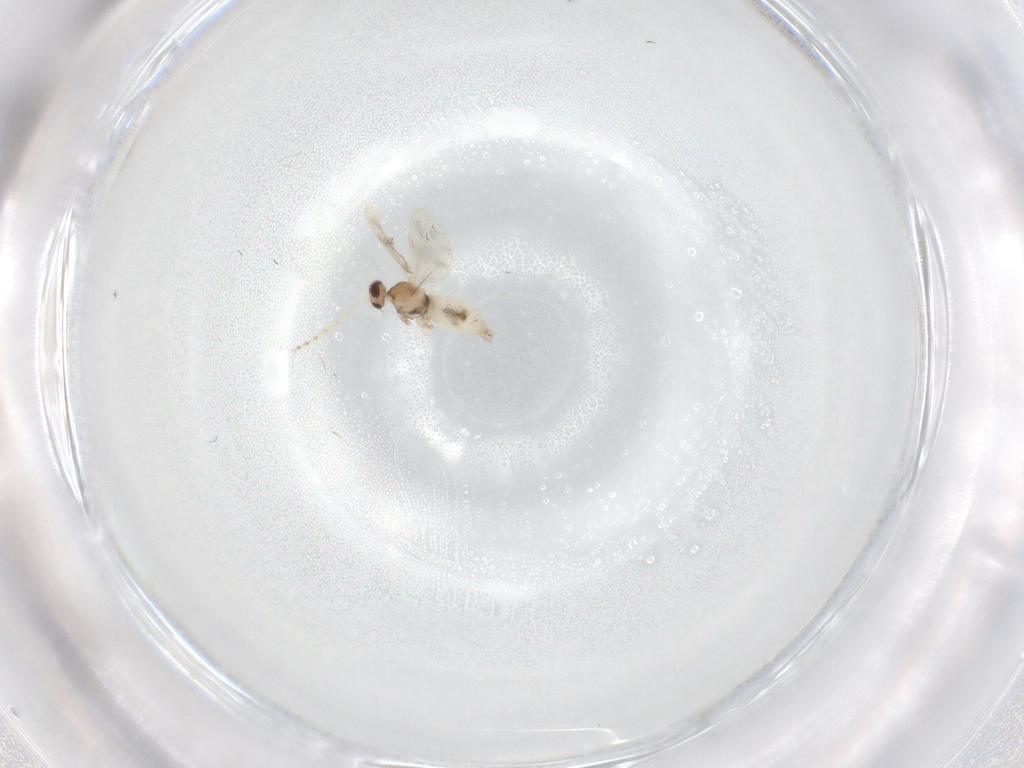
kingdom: Animalia
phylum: Arthropoda
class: Insecta
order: Diptera
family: Cecidomyiidae
